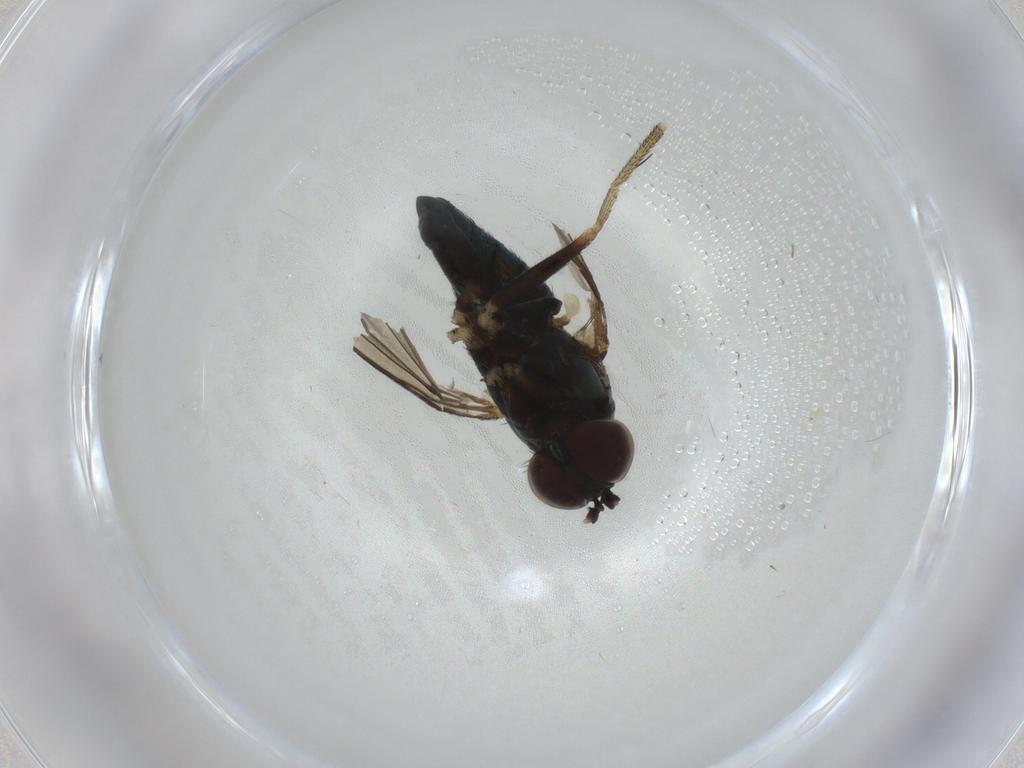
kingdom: Animalia
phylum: Arthropoda
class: Insecta
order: Diptera
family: Dolichopodidae
